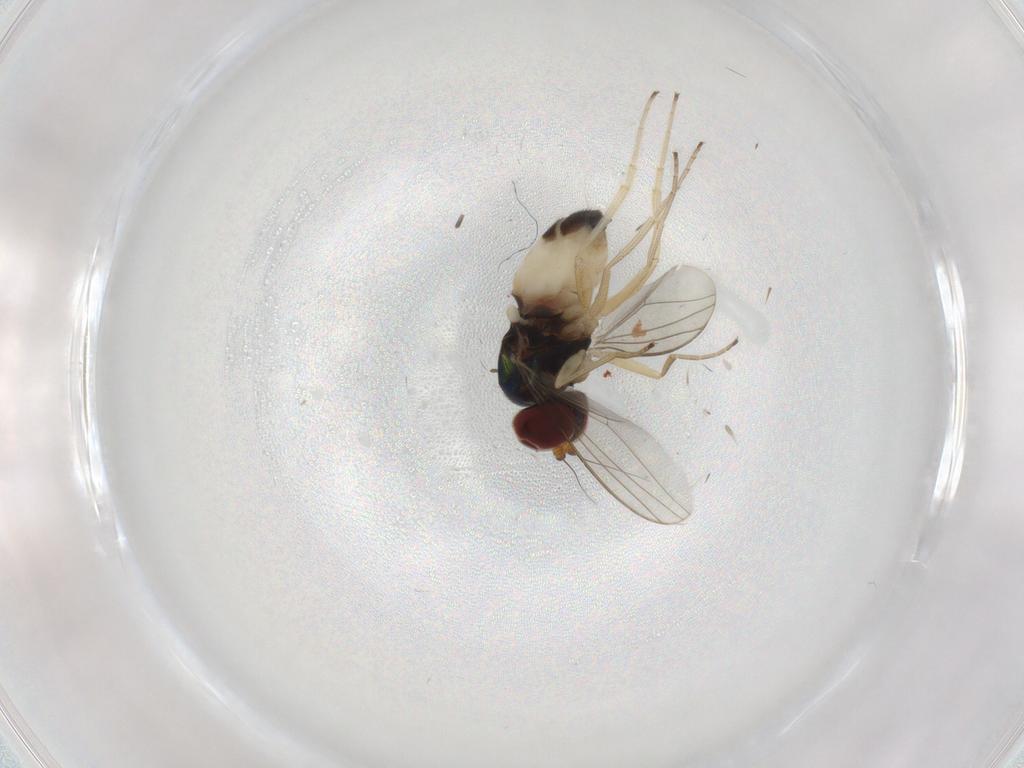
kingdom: Animalia
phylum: Arthropoda
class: Insecta
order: Diptera
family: Dolichopodidae
